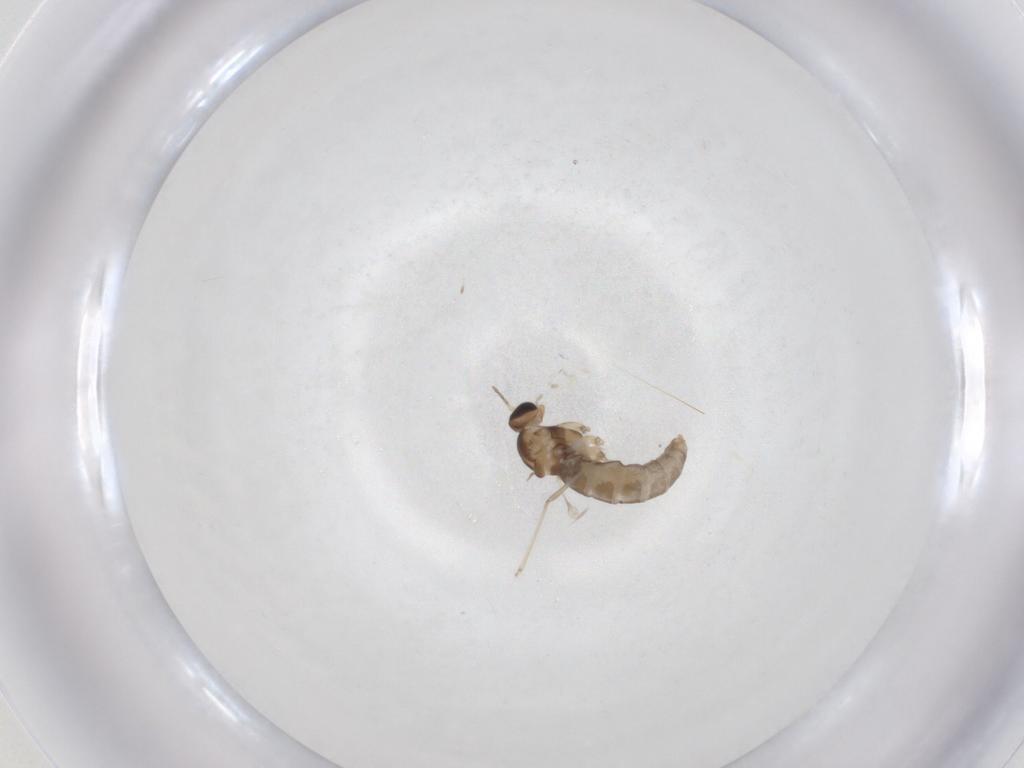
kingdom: Animalia
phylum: Arthropoda
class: Insecta
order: Diptera
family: Cecidomyiidae
